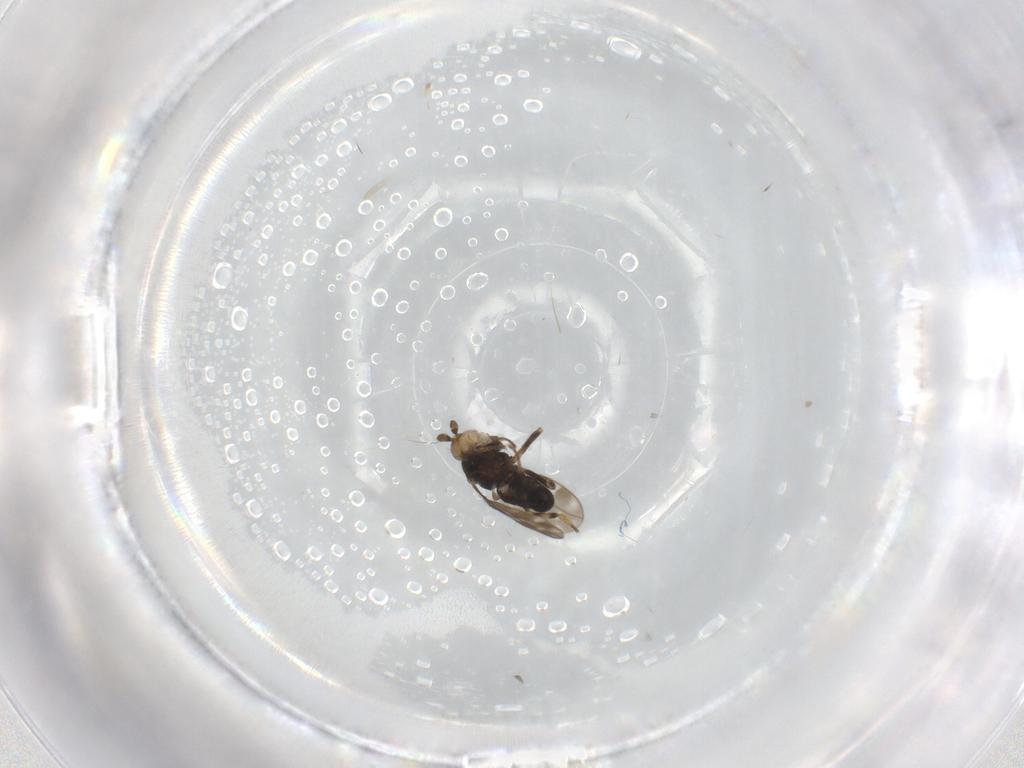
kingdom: Animalia
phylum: Arthropoda
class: Insecta
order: Diptera
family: Sphaeroceridae
